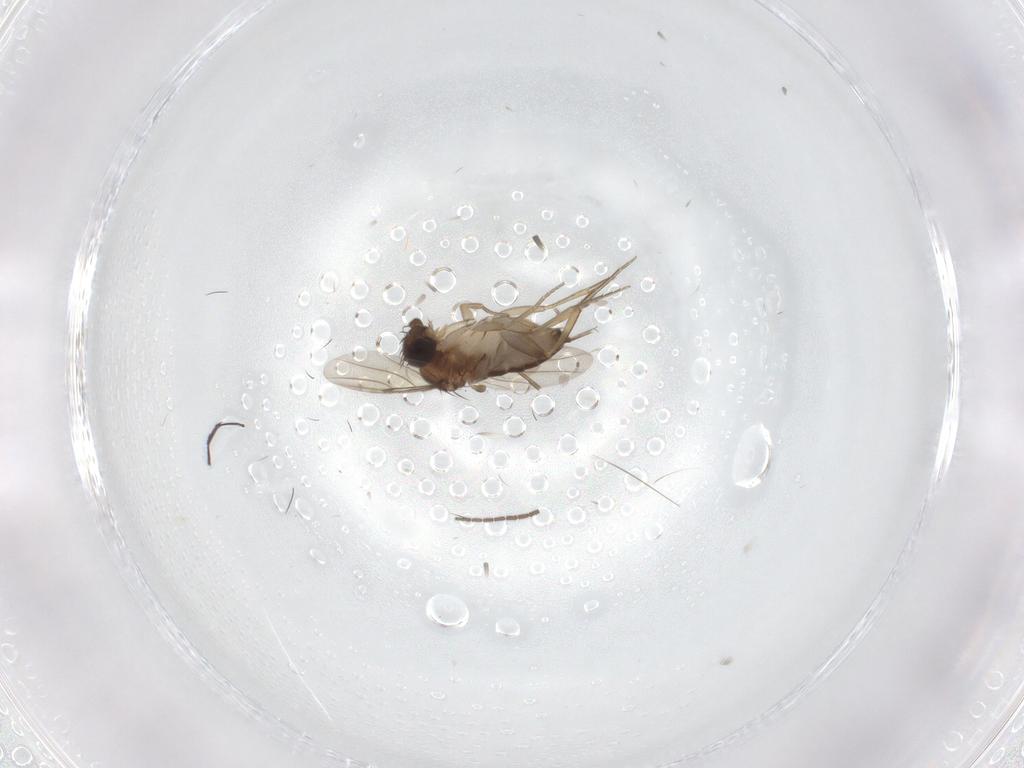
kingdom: Animalia
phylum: Arthropoda
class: Insecta
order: Diptera
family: Phoridae
